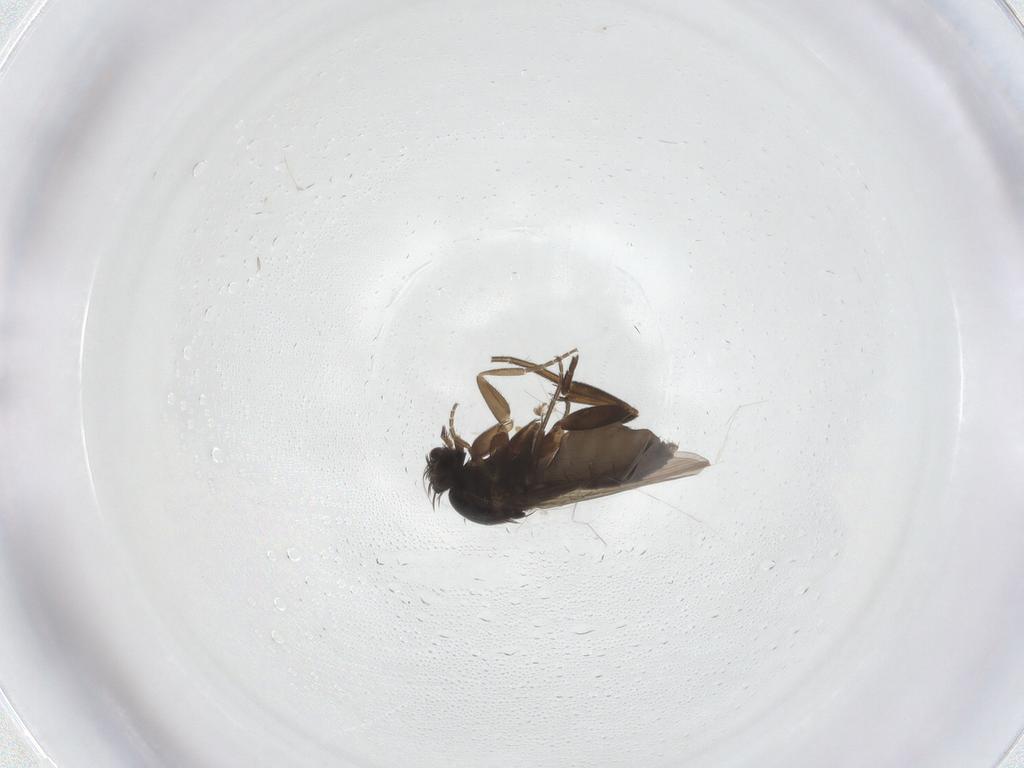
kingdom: Animalia
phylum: Arthropoda
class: Insecta
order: Diptera
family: Phoridae
